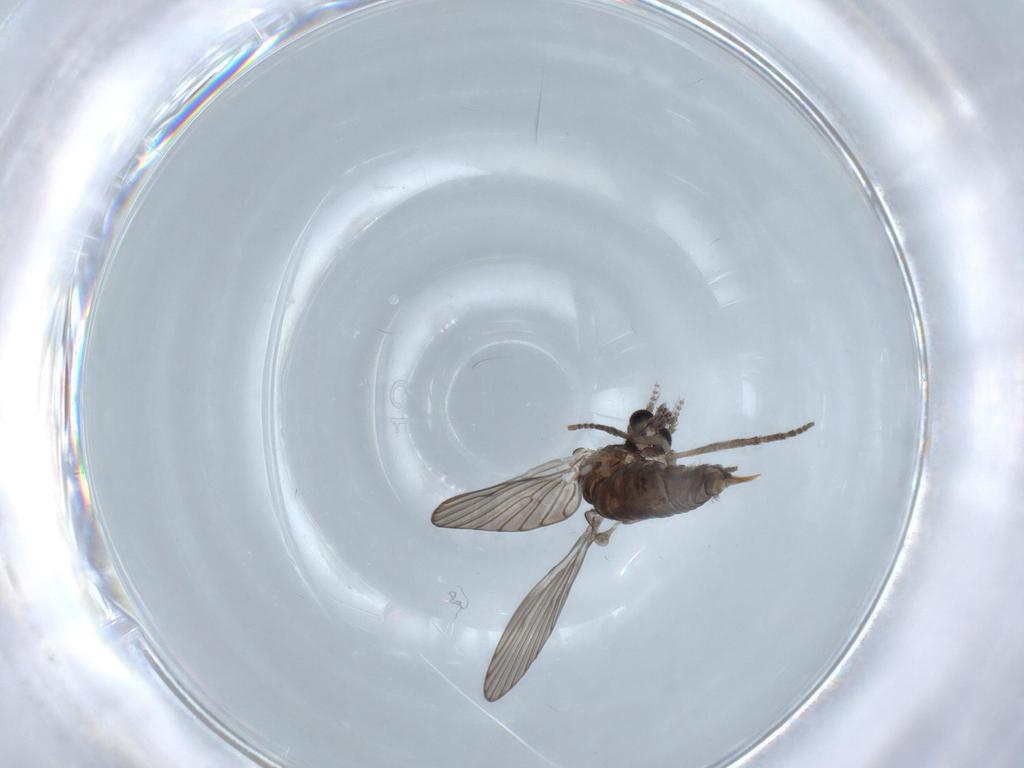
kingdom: Animalia
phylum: Arthropoda
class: Insecta
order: Diptera
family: Psychodidae
